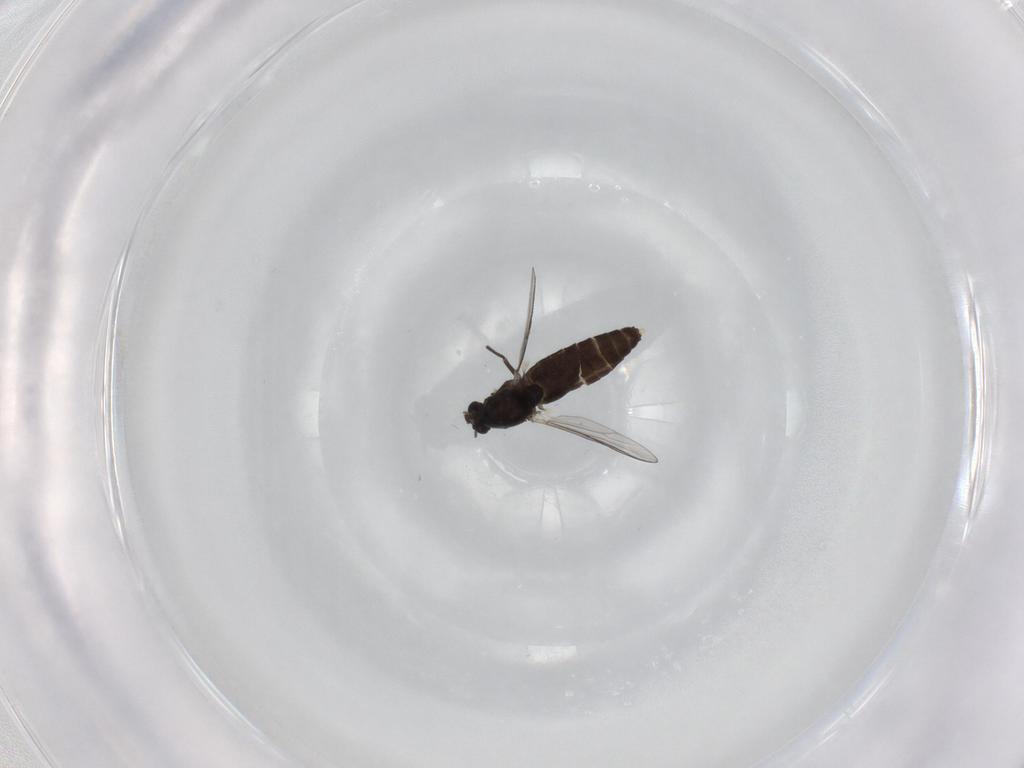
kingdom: Animalia
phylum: Arthropoda
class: Insecta
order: Diptera
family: Chironomidae
